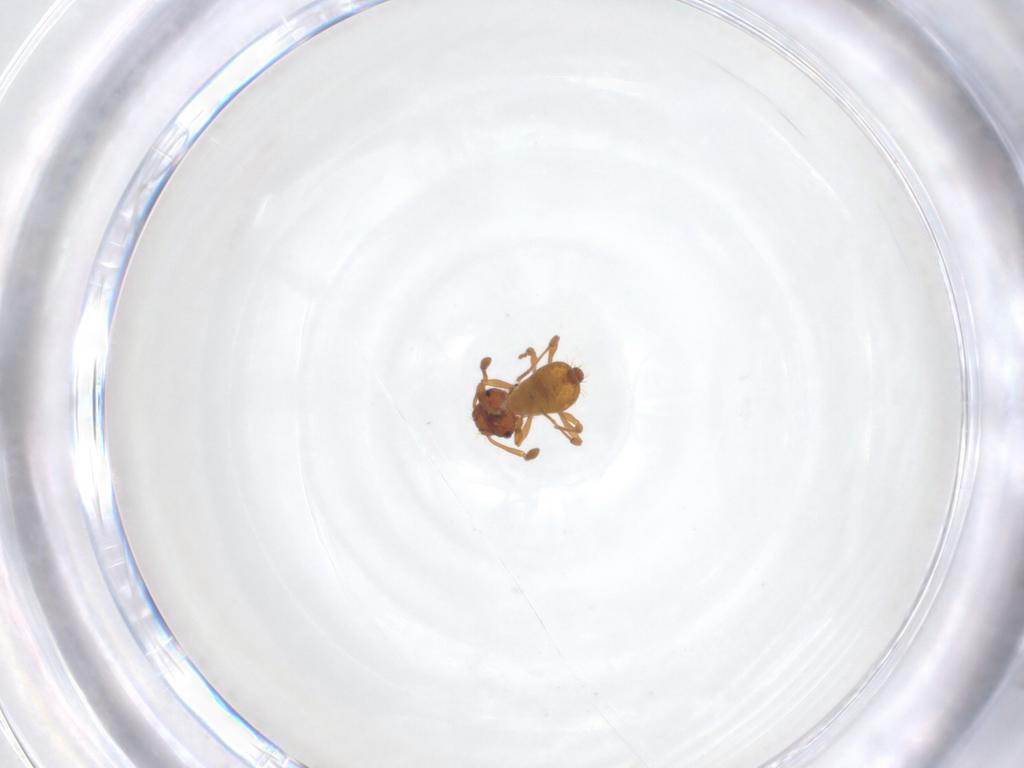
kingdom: Animalia
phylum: Arthropoda
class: Insecta
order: Hymenoptera
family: Formicidae
